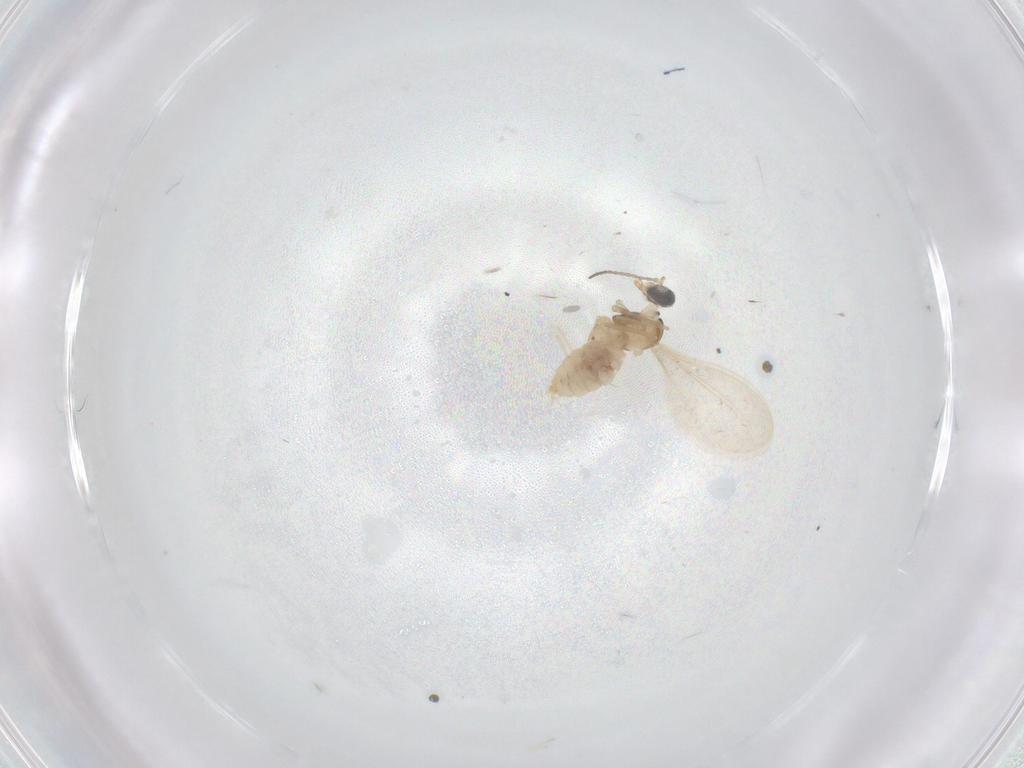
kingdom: Animalia
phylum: Arthropoda
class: Insecta
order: Diptera
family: Cecidomyiidae
